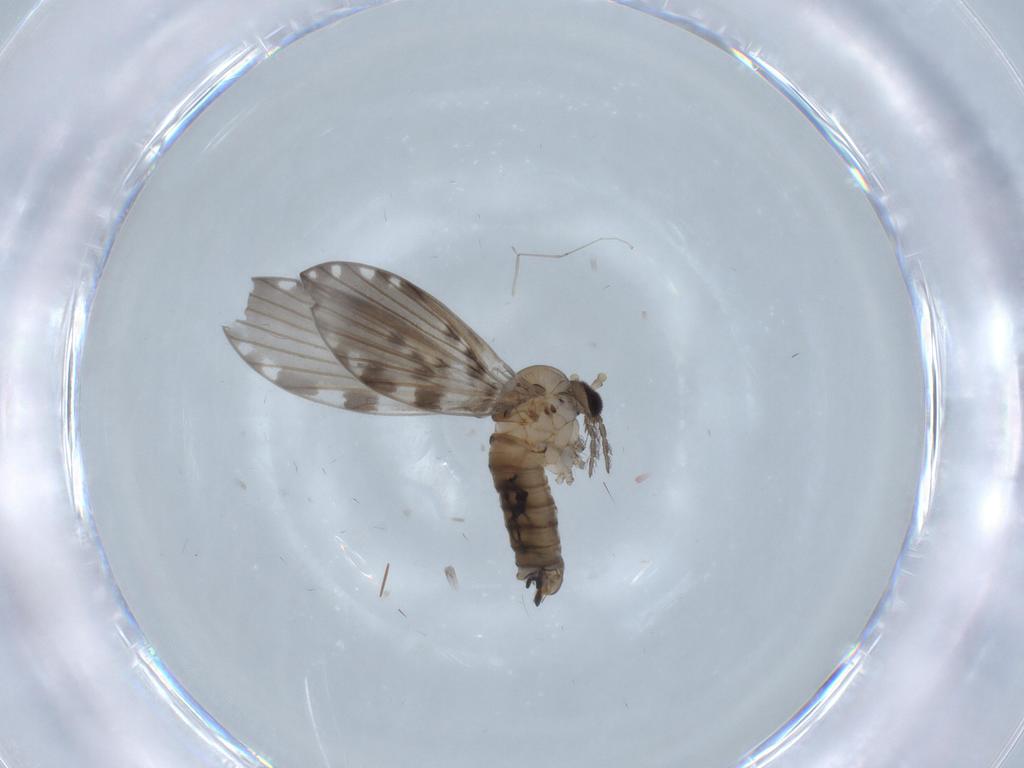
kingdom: Animalia
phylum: Arthropoda
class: Insecta
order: Diptera
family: Psychodidae
